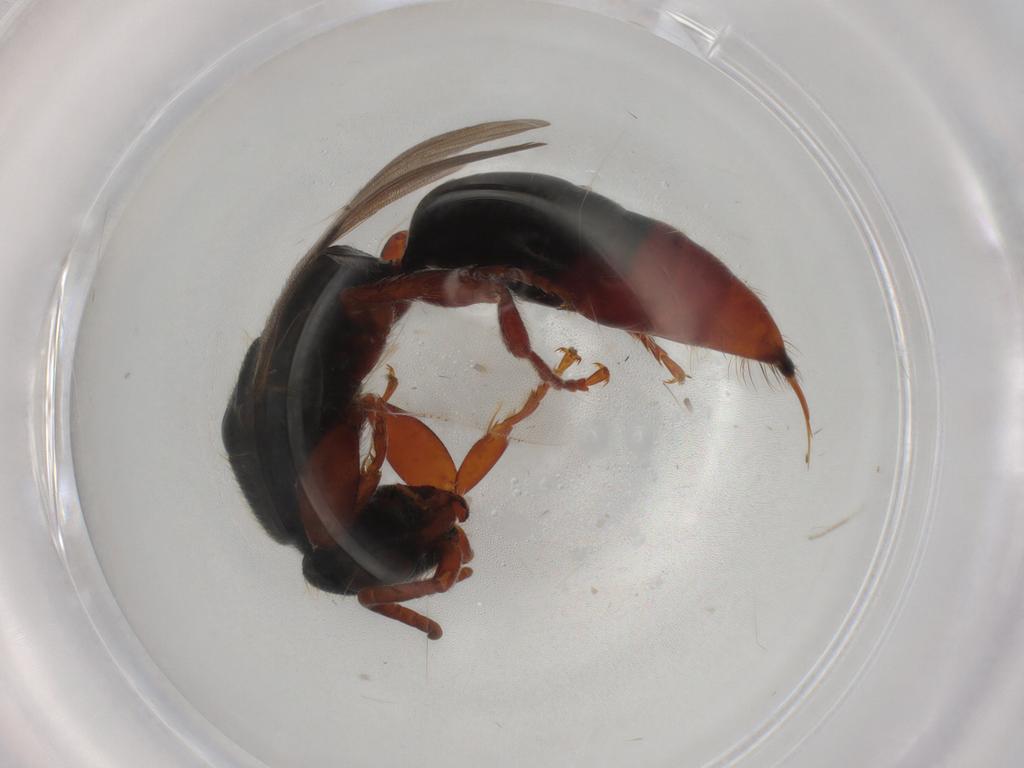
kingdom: Animalia
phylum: Arthropoda
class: Insecta
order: Hymenoptera
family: Bethylidae
